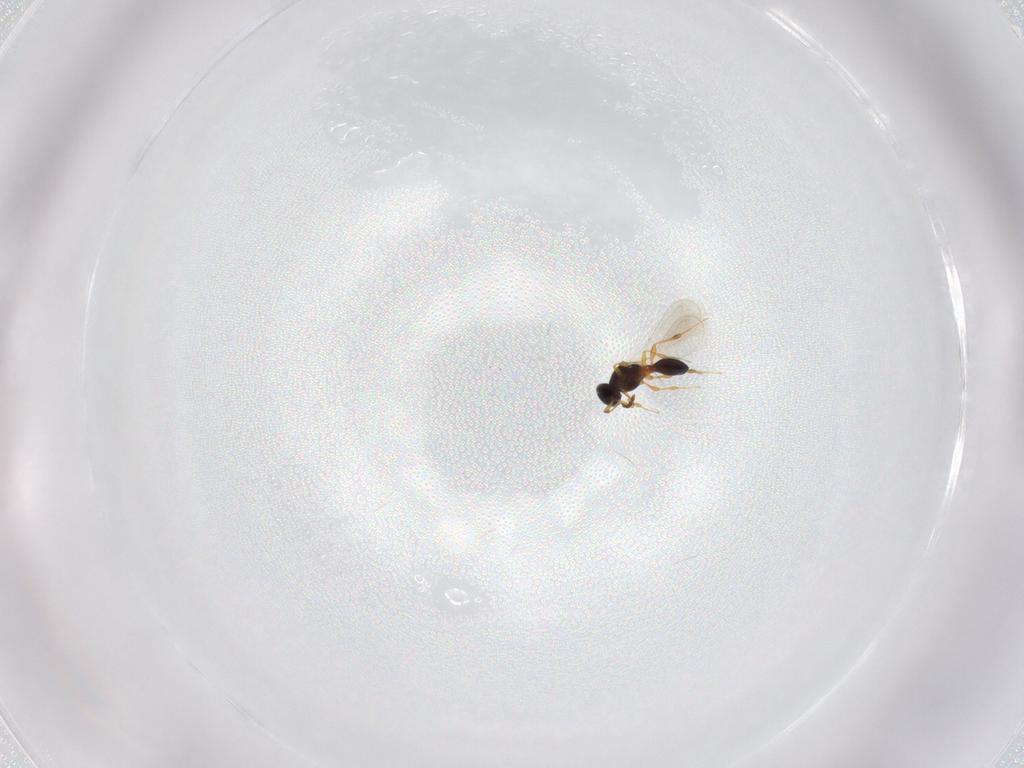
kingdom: Animalia
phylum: Arthropoda
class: Insecta
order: Hymenoptera
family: Platygastridae
